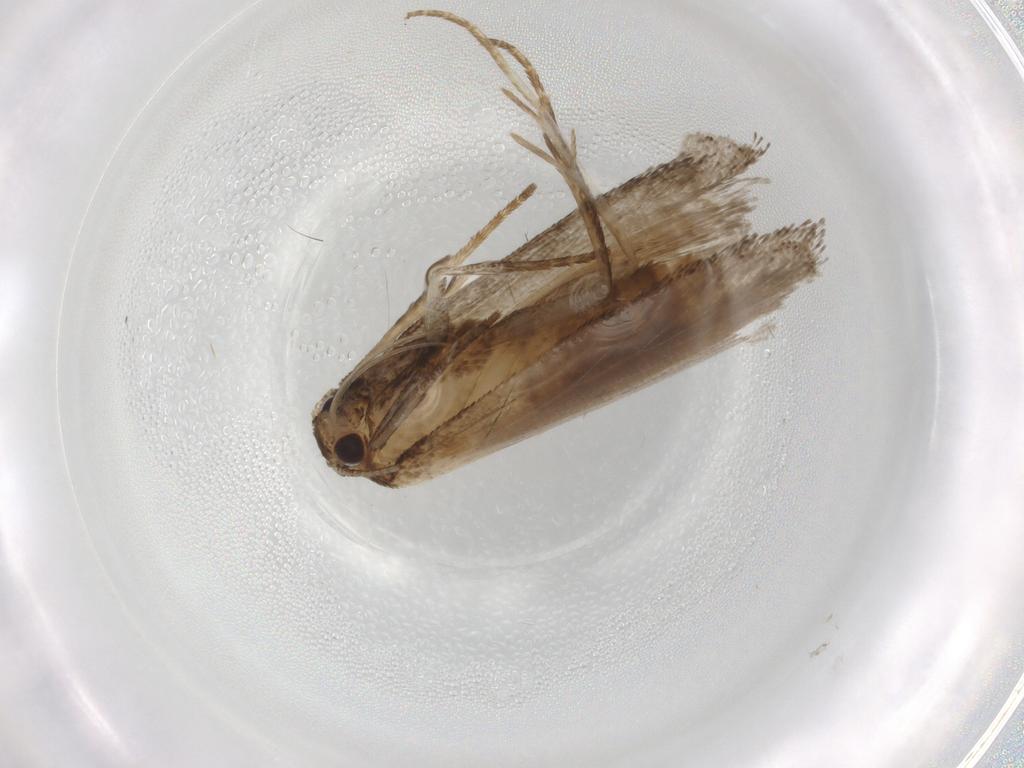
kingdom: Animalia
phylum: Arthropoda
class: Insecta
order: Lepidoptera
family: Nolidae
